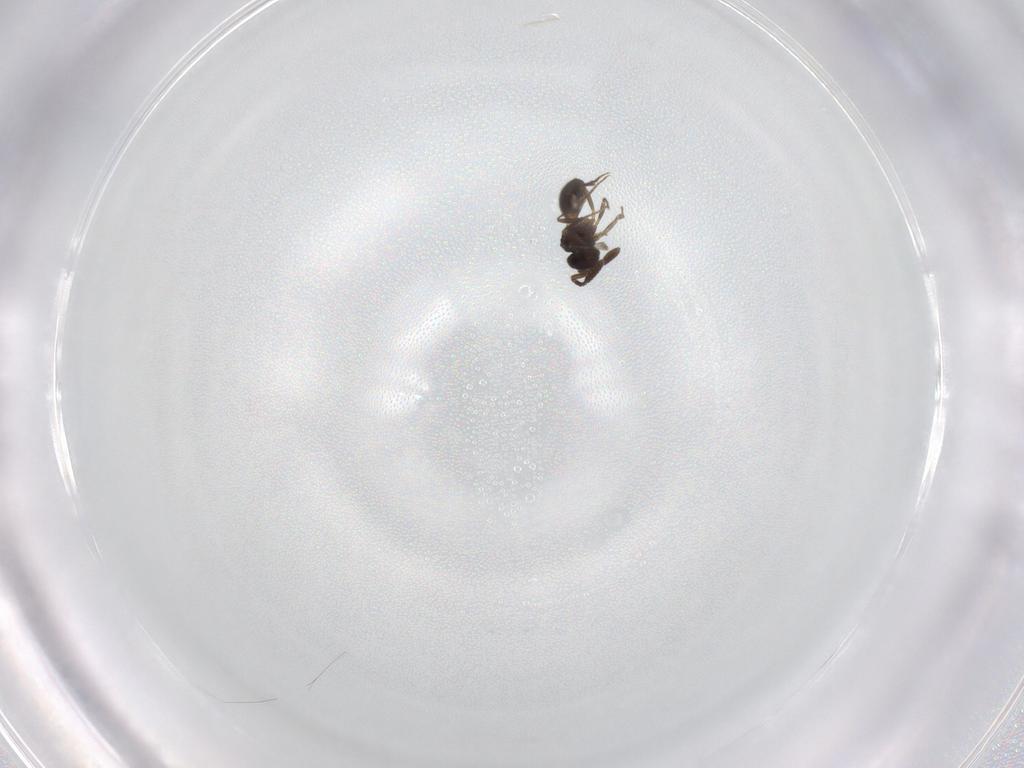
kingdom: Animalia
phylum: Arthropoda
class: Insecta
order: Hymenoptera
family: Scelionidae
